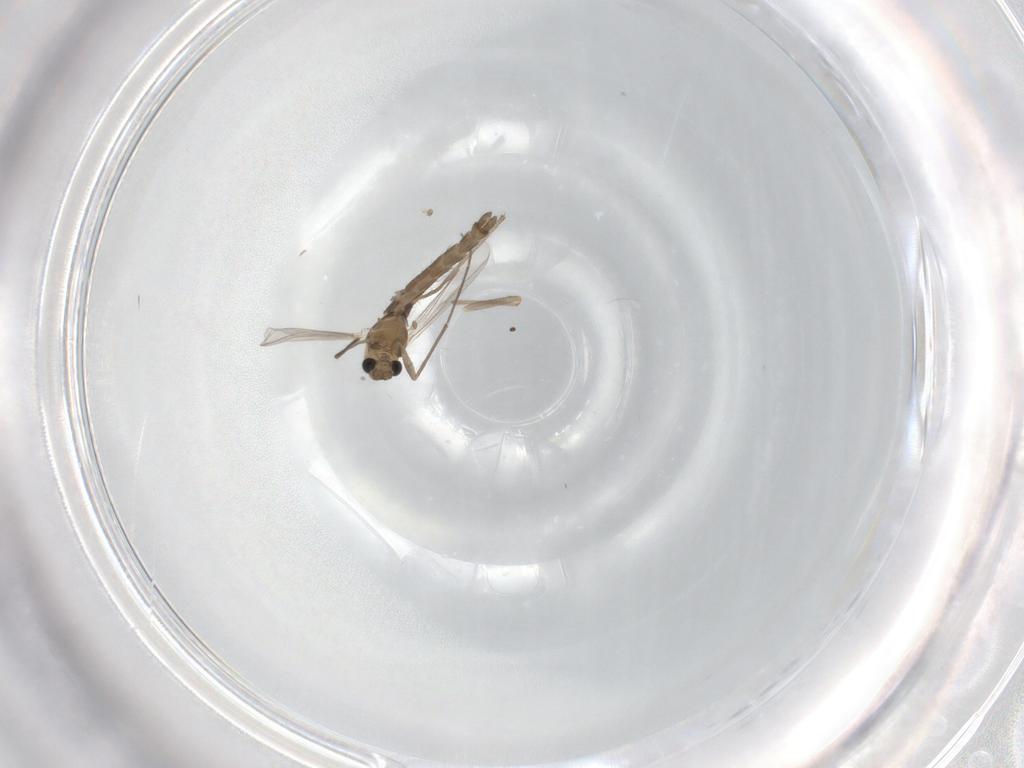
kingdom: Animalia
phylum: Arthropoda
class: Insecta
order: Diptera
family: Chironomidae
